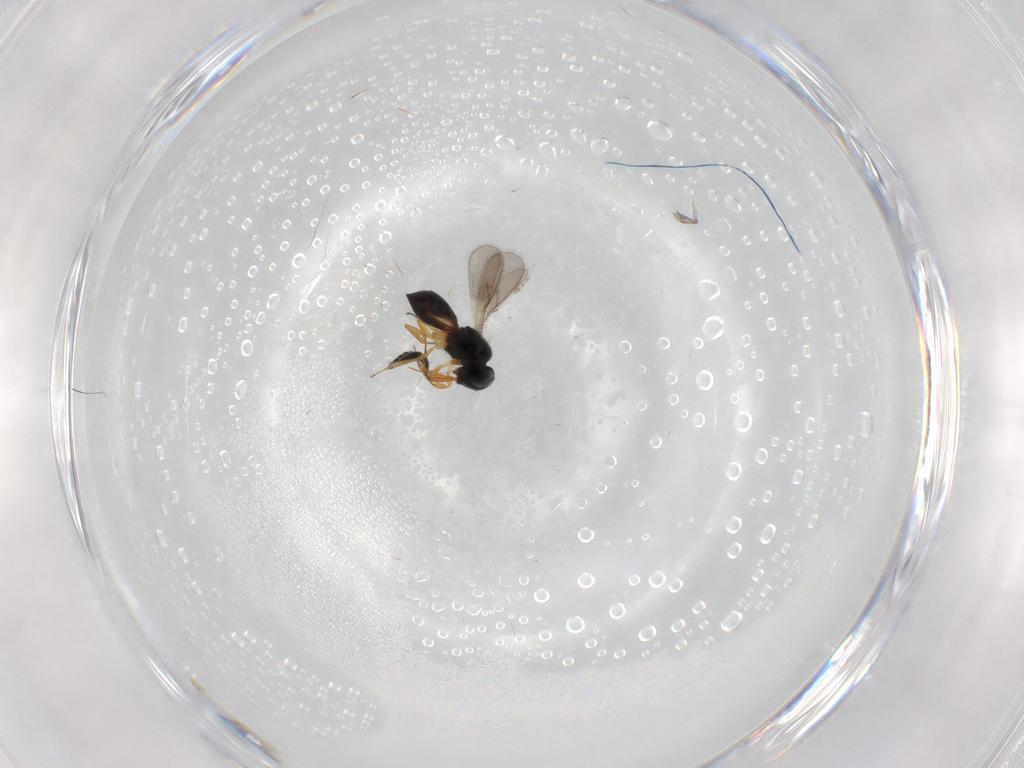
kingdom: Animalia
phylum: Arthropoda
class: Insecta
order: Hymenoptera
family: Scelionidae
